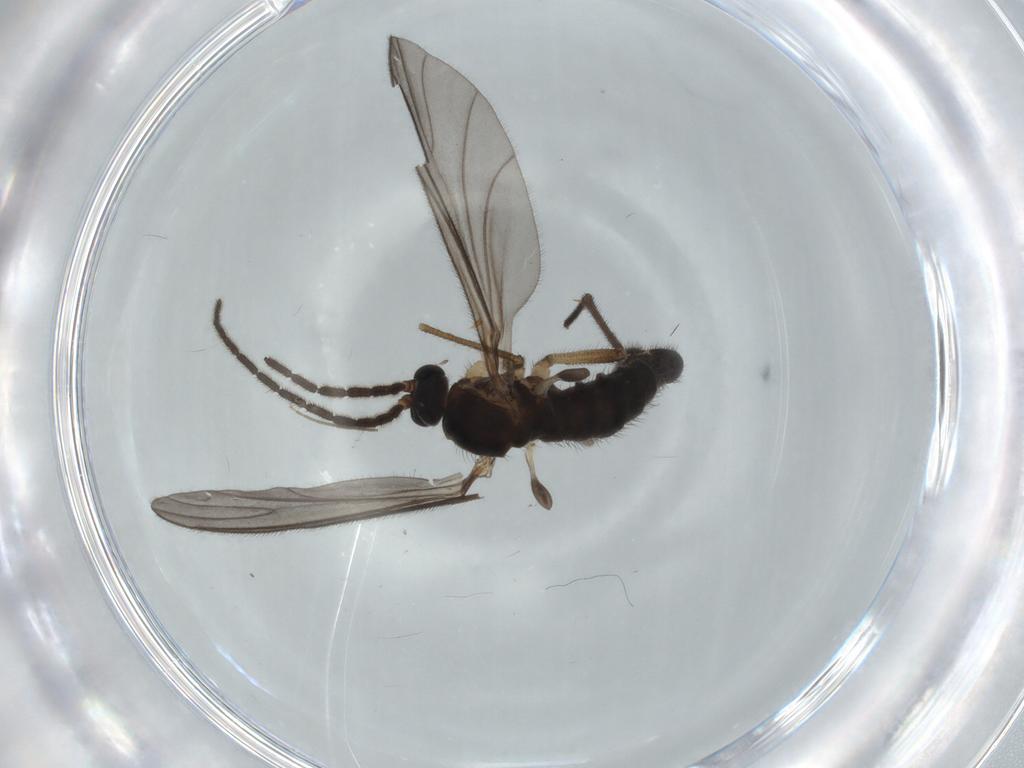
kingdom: Animalia
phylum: Arthropoda
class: Insecta
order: Diptera
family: Sciaridae
